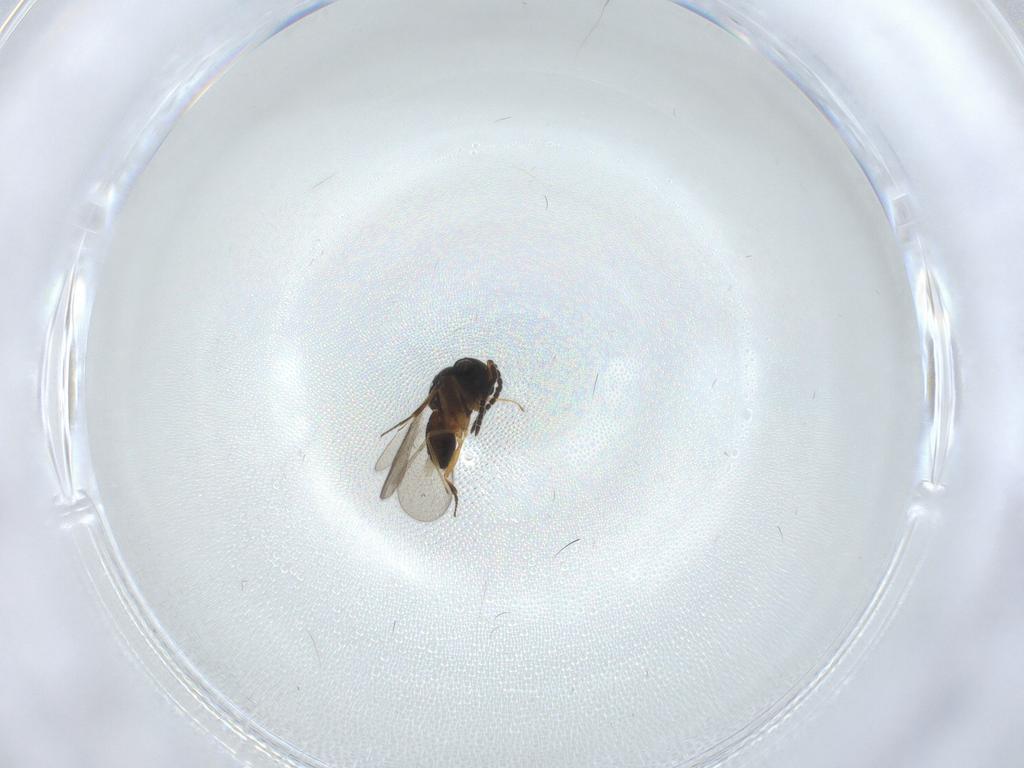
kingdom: Animalia
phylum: Arthropoda
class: Insecta
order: Hymenoptera
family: Scelionidae
